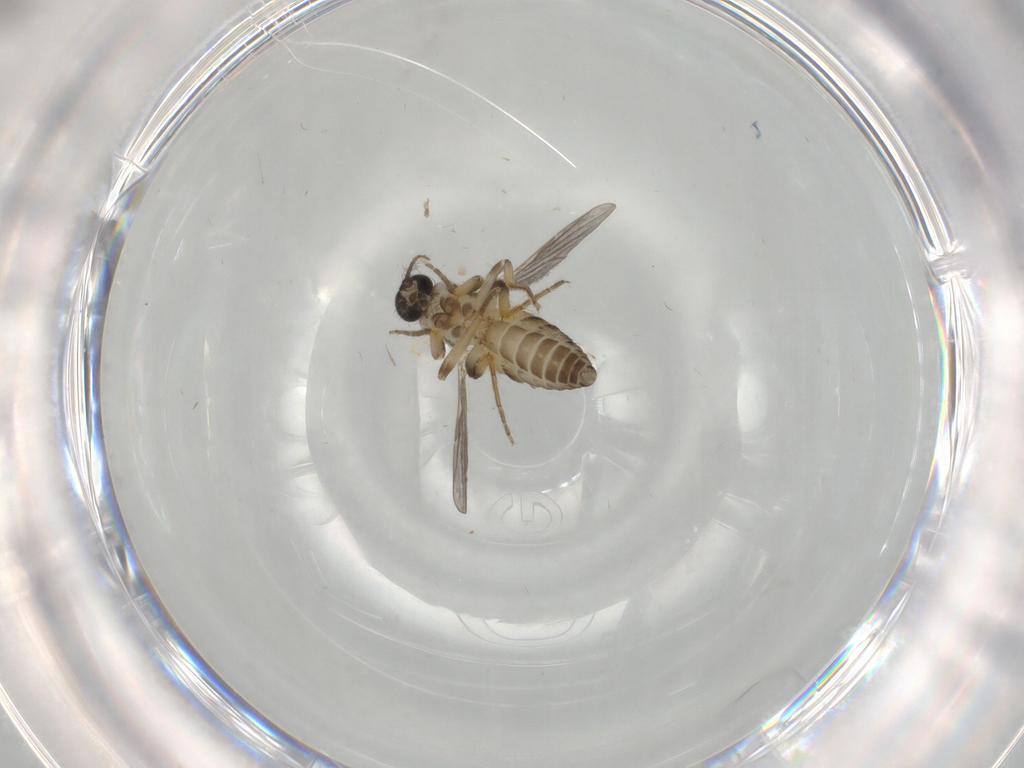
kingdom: Animalia
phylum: Arthropoda
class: Insecta
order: Diptera
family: Ceratopogonidae
